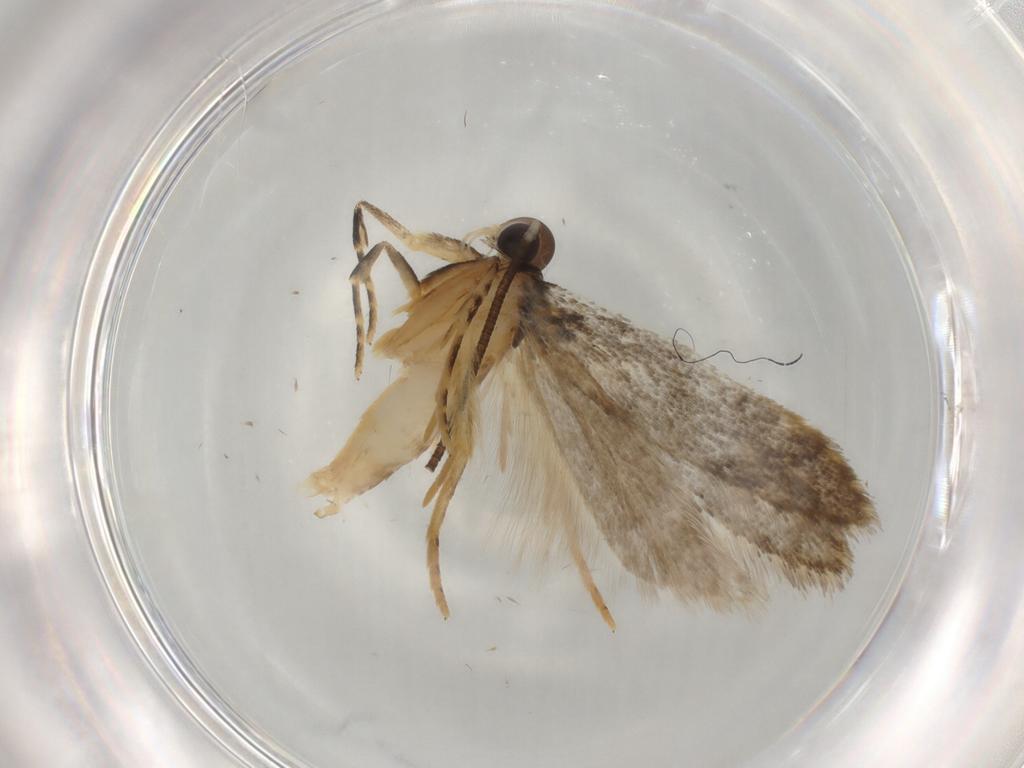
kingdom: Animalia
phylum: Arthropoda
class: Insecta
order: Lepidoptera
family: Autostichidae
